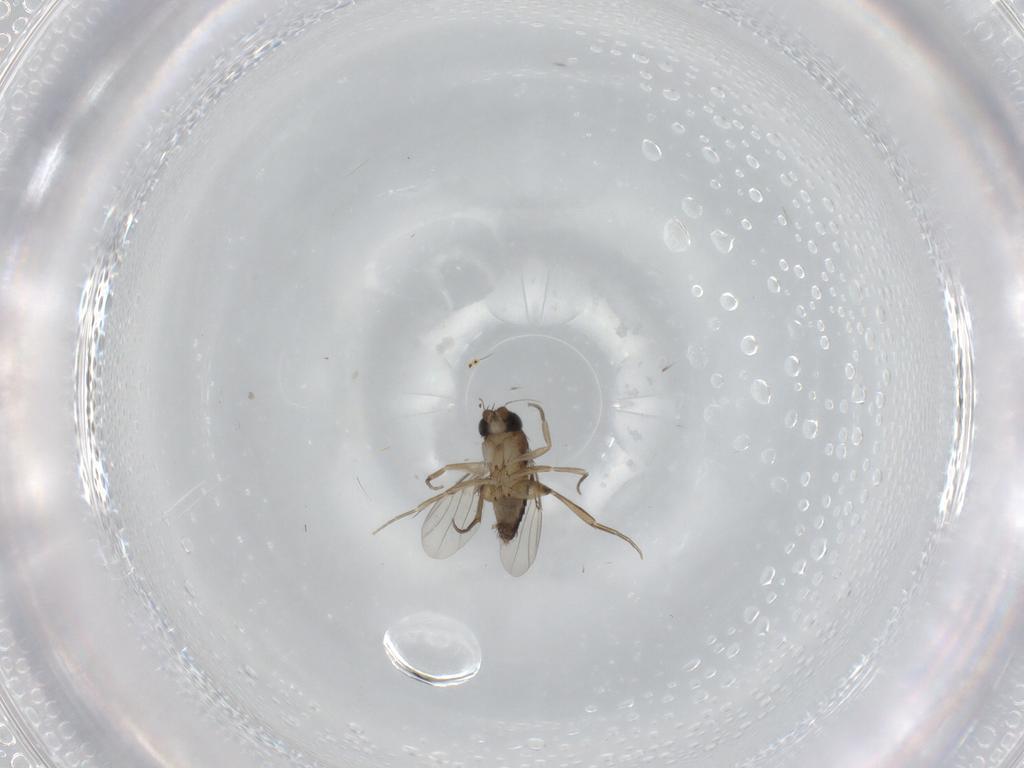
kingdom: Animalia
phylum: Arthropoda
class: Insecta
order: Diptera
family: Phoridae
